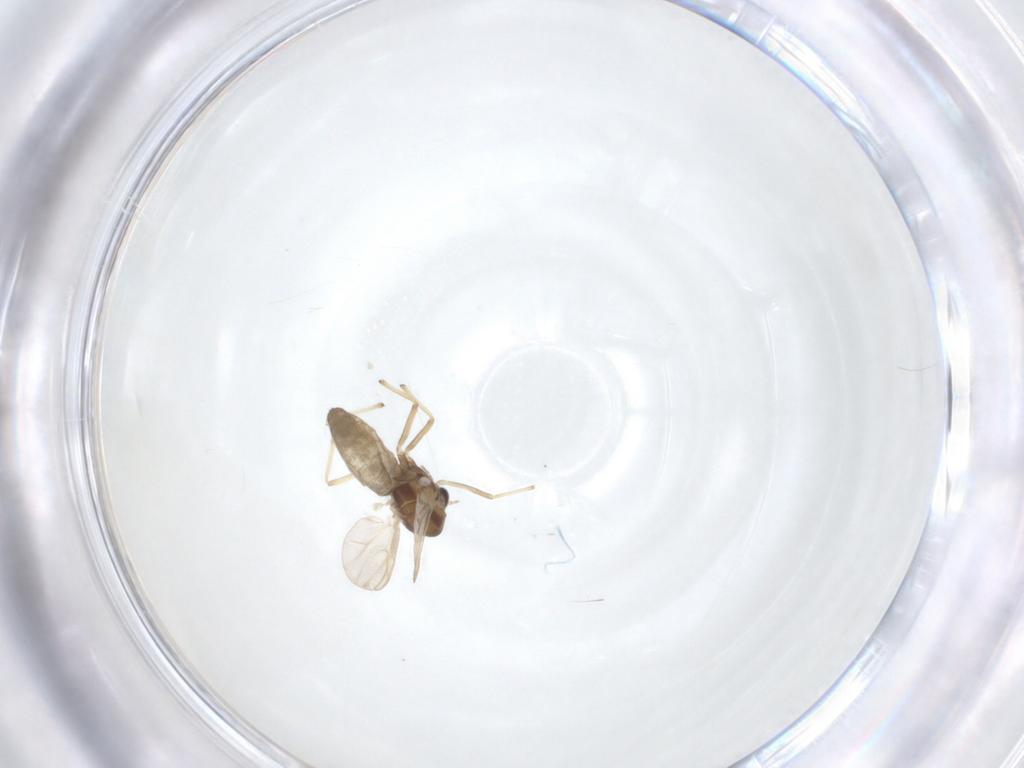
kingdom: Animalia
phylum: Arthropoda
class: Insecta
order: Diptera
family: Chironomidae
